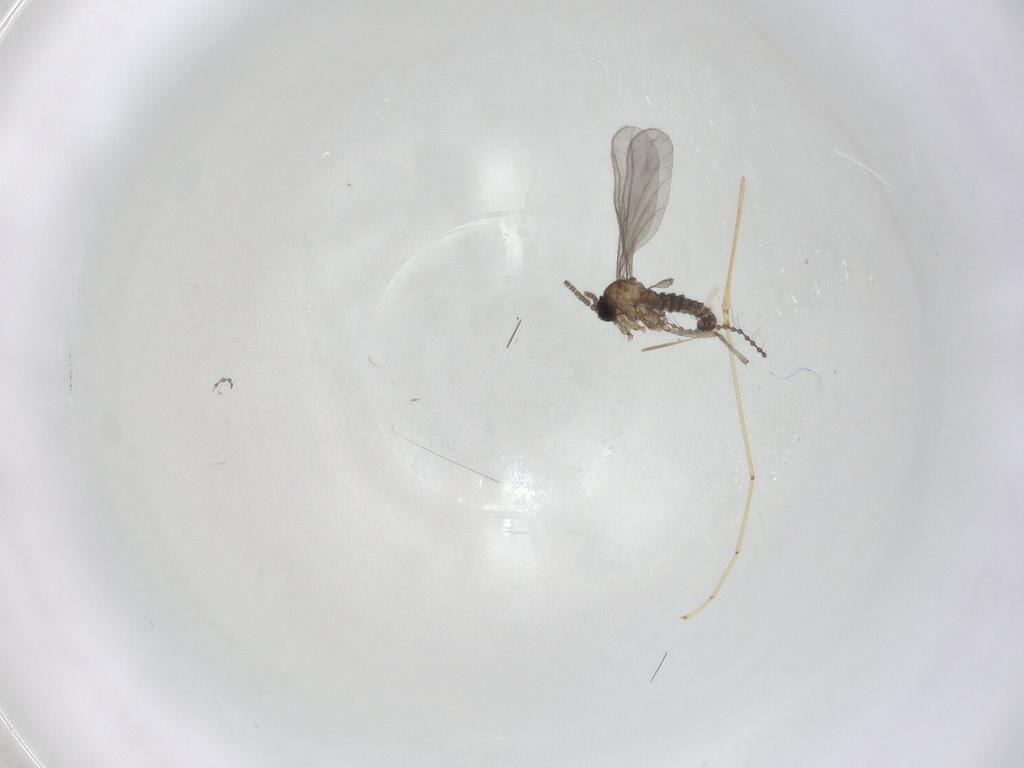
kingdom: Animalia
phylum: Arthropoda
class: Insecta
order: Diptera
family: Sciaridae
